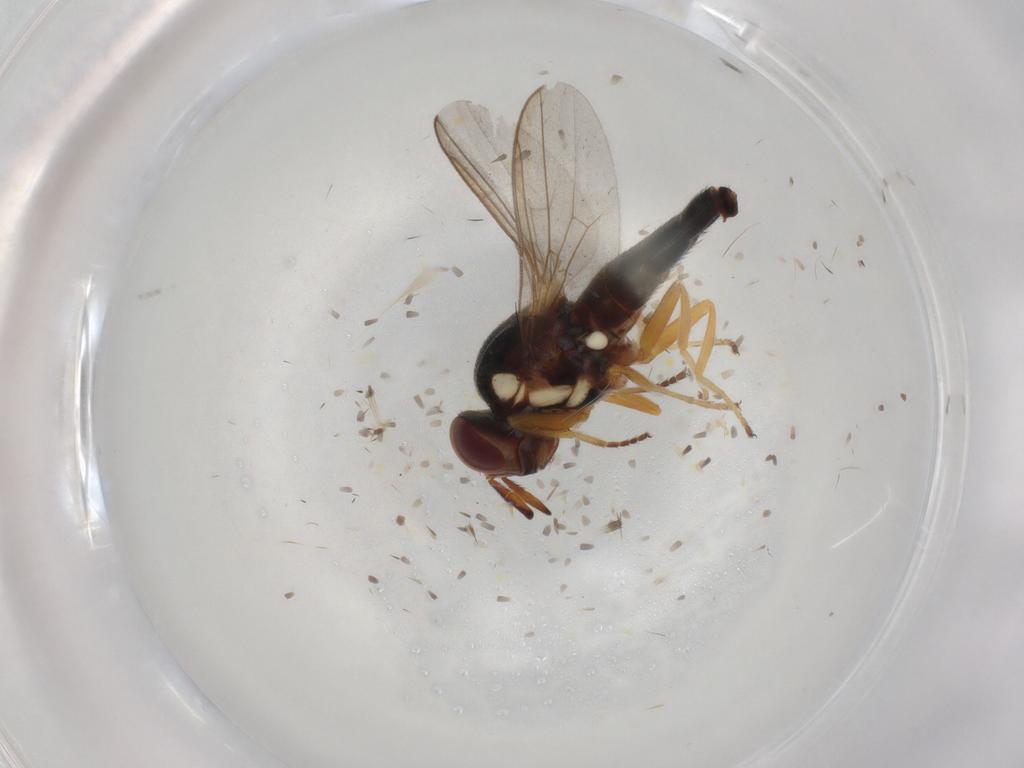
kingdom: Animalia
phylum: Arthropoda
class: Insecta
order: Diptera
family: Chloropidae
